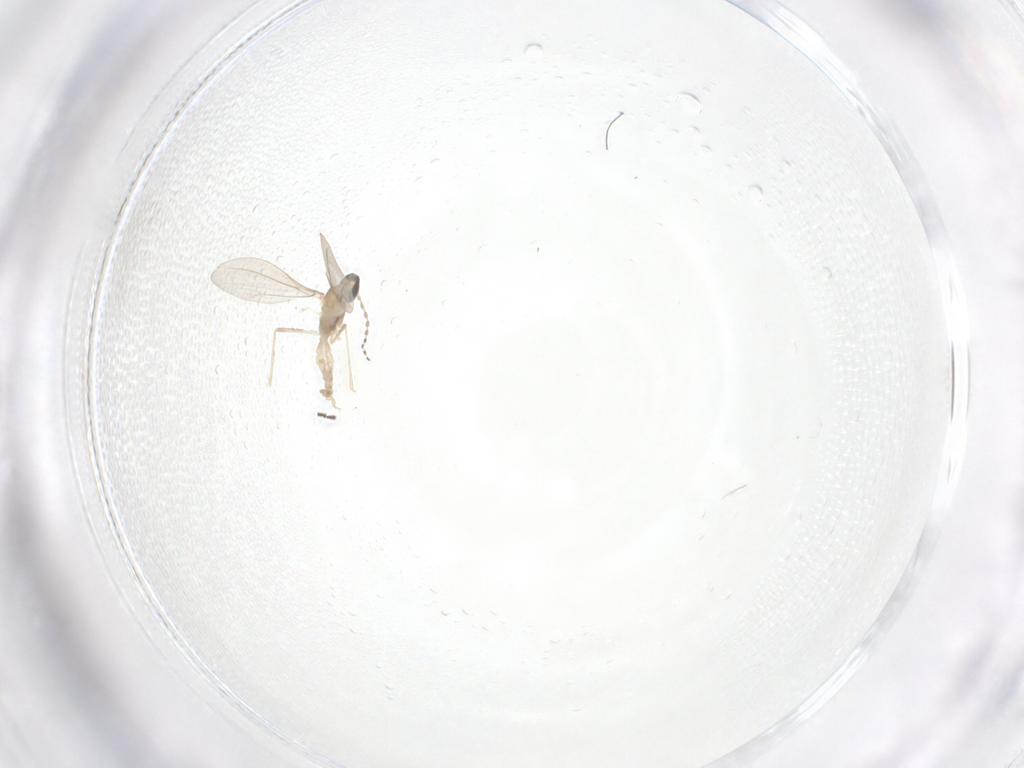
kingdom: Animalia
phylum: Arthropoda
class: Insecta
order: Diptera
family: Cecidomyiidae
